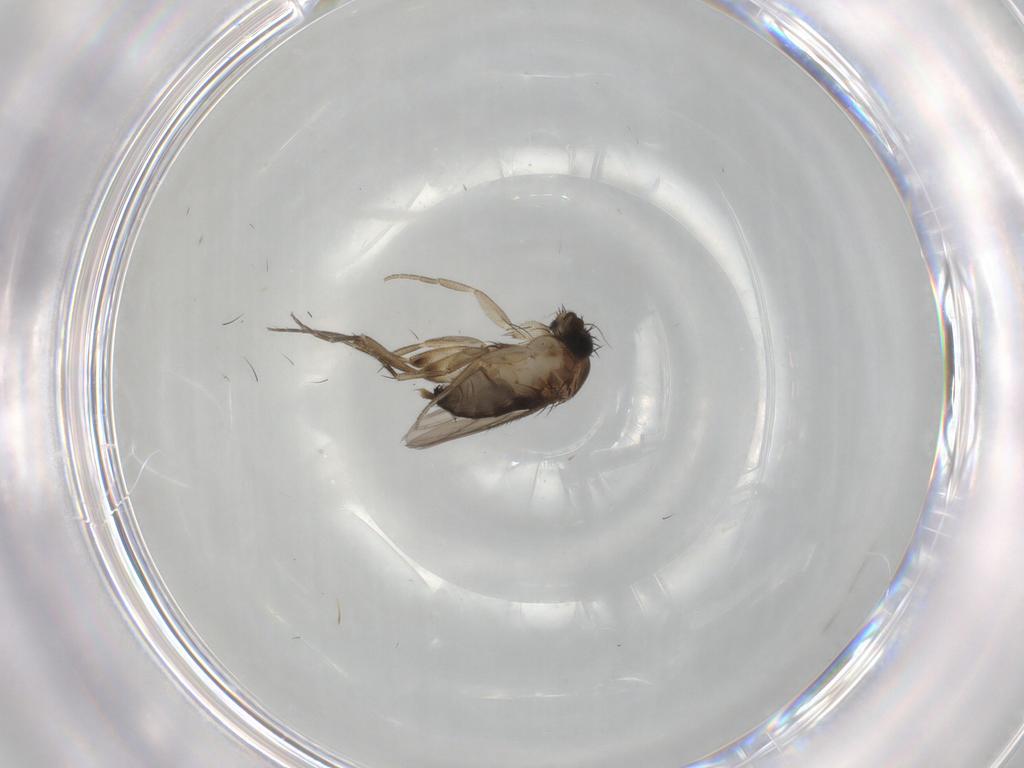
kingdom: Animalia
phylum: Arthropoda
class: Insecta
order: Diptera
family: Phoridae
